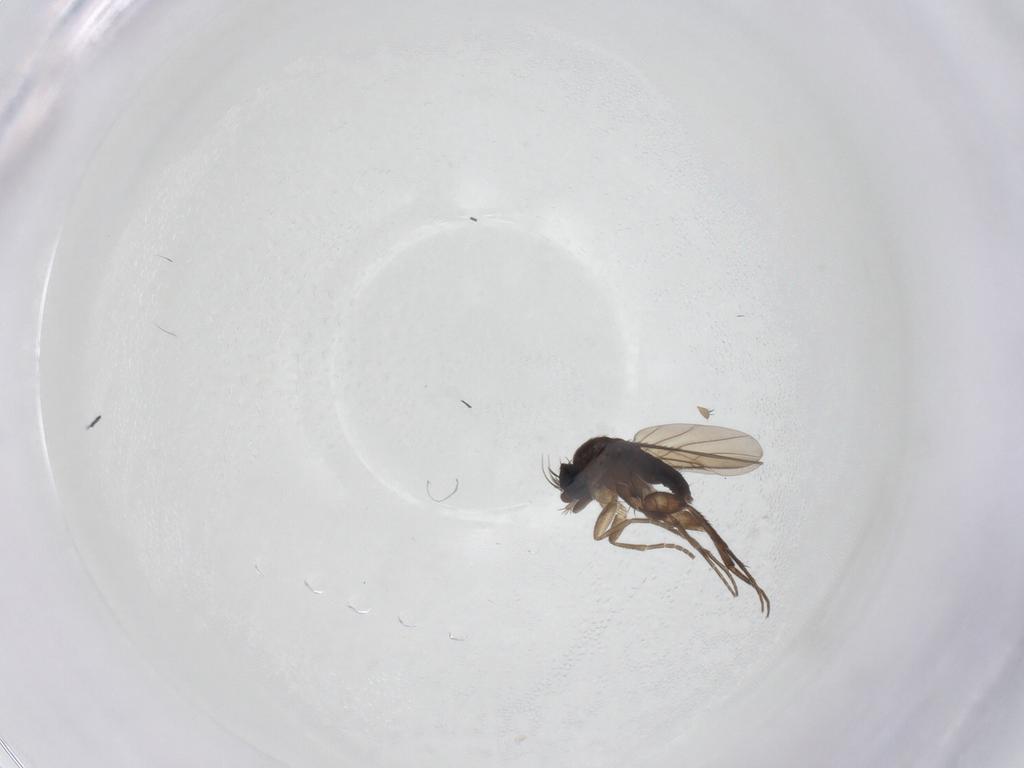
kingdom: Animalia
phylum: Arthropoda
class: Insecta
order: Diptera
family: Phoridae
